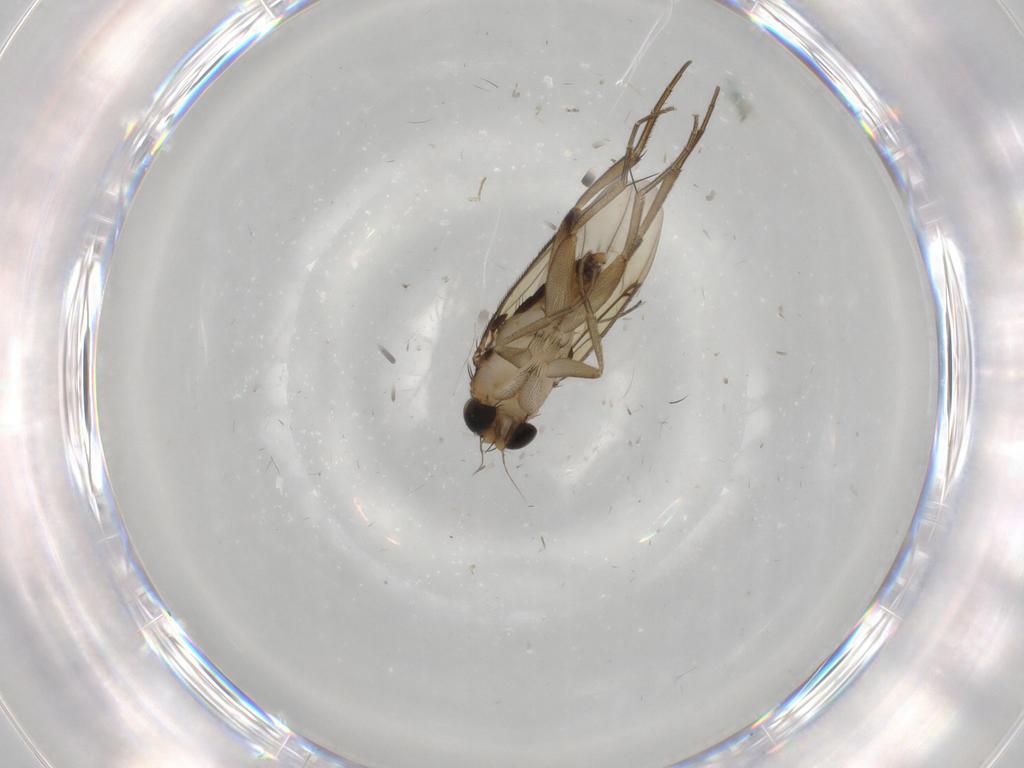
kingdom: Animalia
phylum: Arthropoda
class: Insecta
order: Diptera
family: Phoridae
